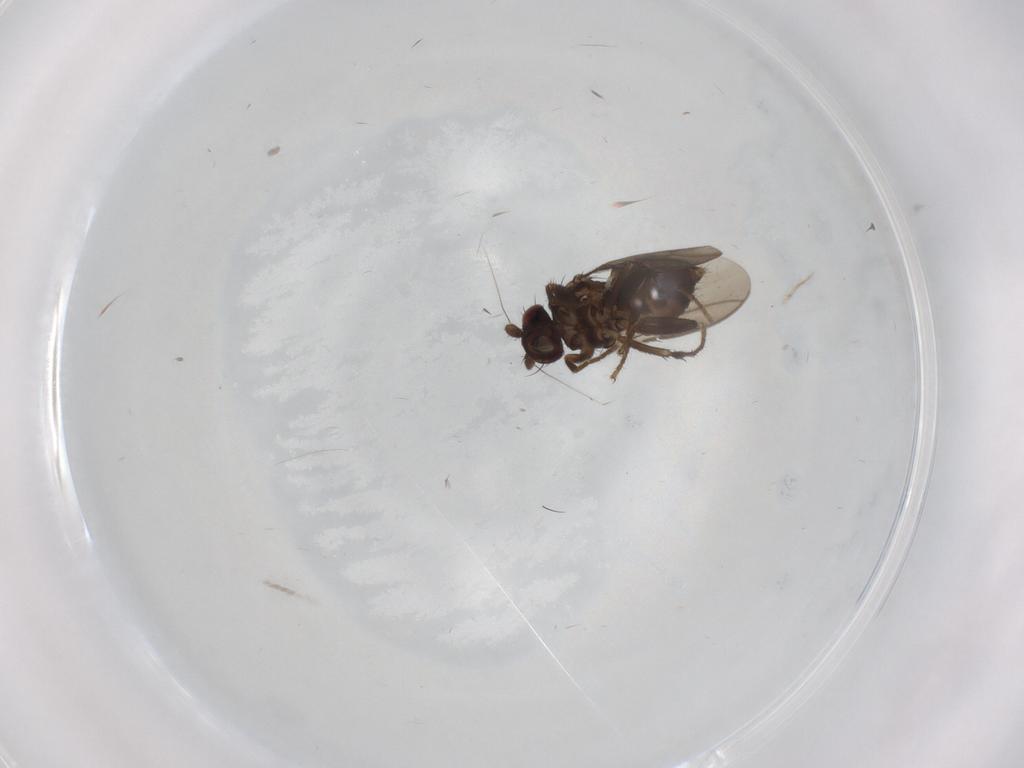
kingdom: Animalia
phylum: Arthropoda
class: Insecta
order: Diptera
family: Sphaeroceridae
